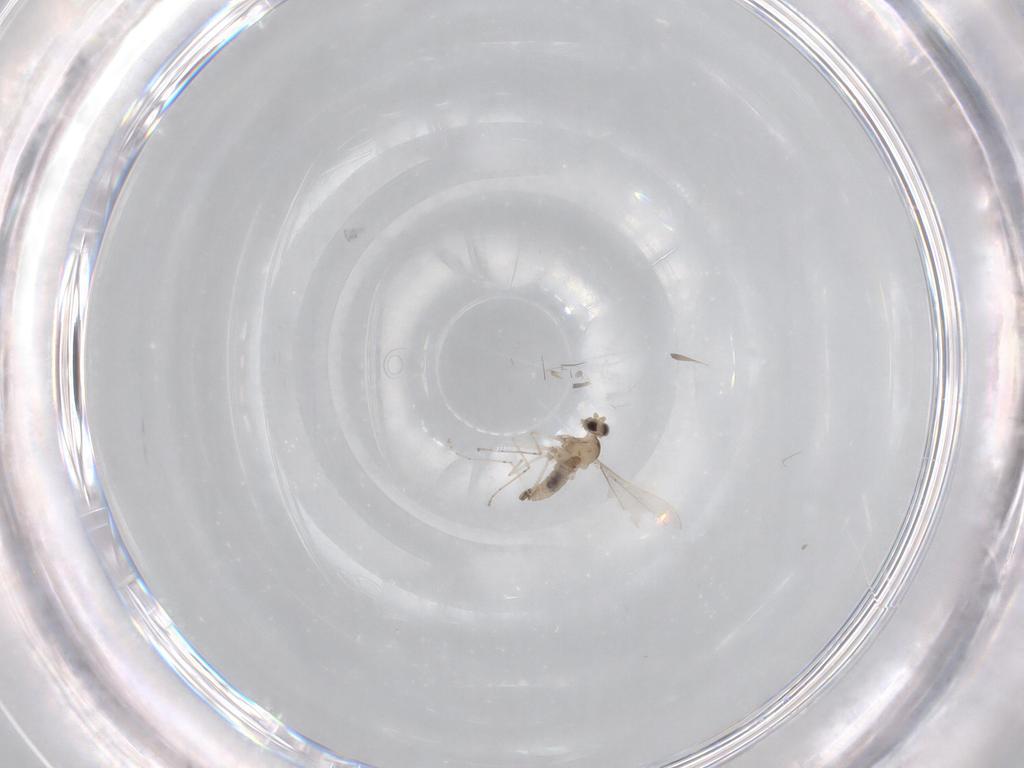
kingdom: Animalia
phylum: Arthropoda
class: Insecta
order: Diptera
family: Cecidomyiidae
